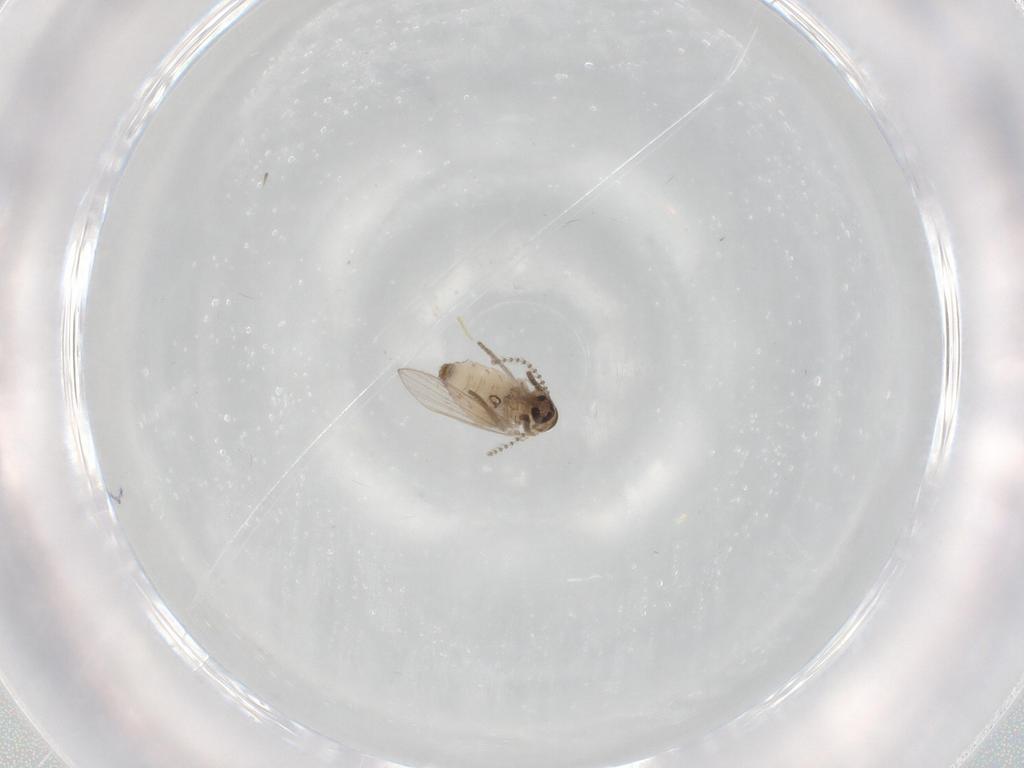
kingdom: Animalia
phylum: Arthropoda
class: Insecta
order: Diptera
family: Psychodidae
